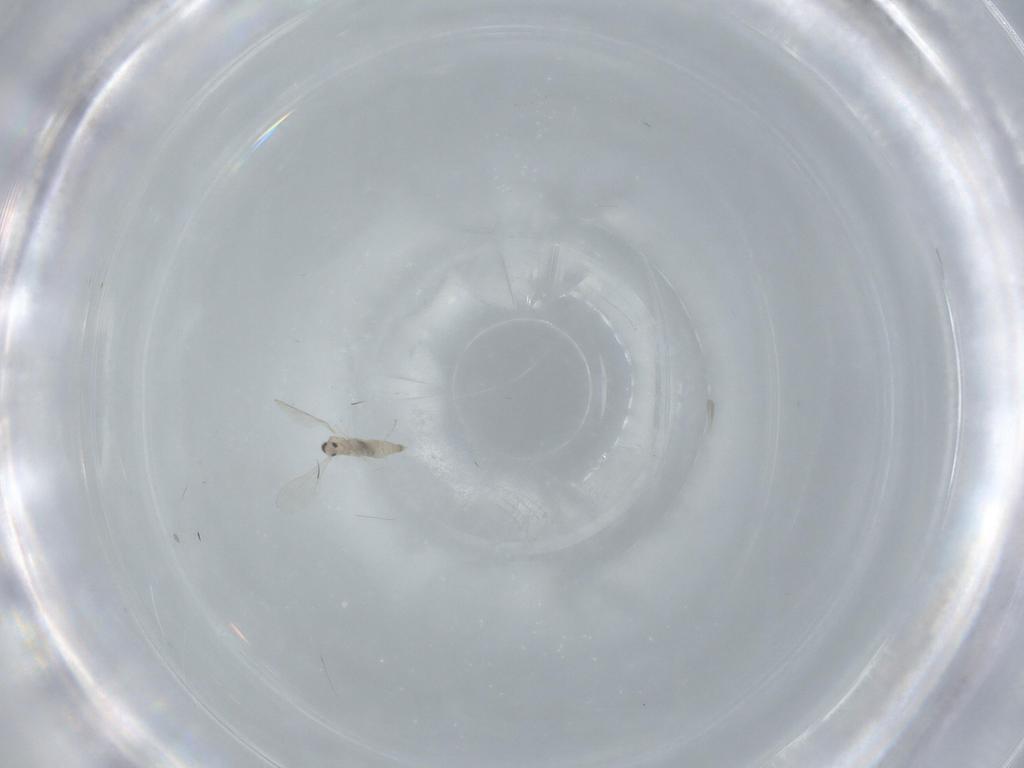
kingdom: Animalia
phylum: Arthropoda
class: Insecta
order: Diptera
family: Cecidomyiidae
